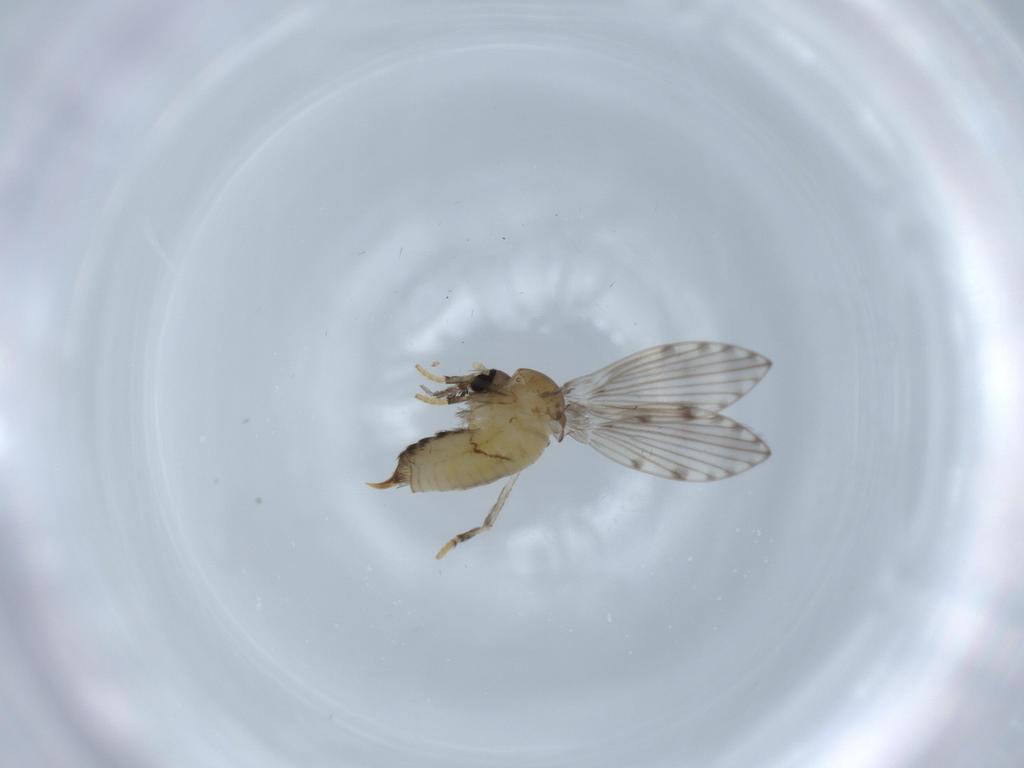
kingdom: Animalia
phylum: Arthropoda
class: Insecta
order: Diptera
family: Psychodidae
